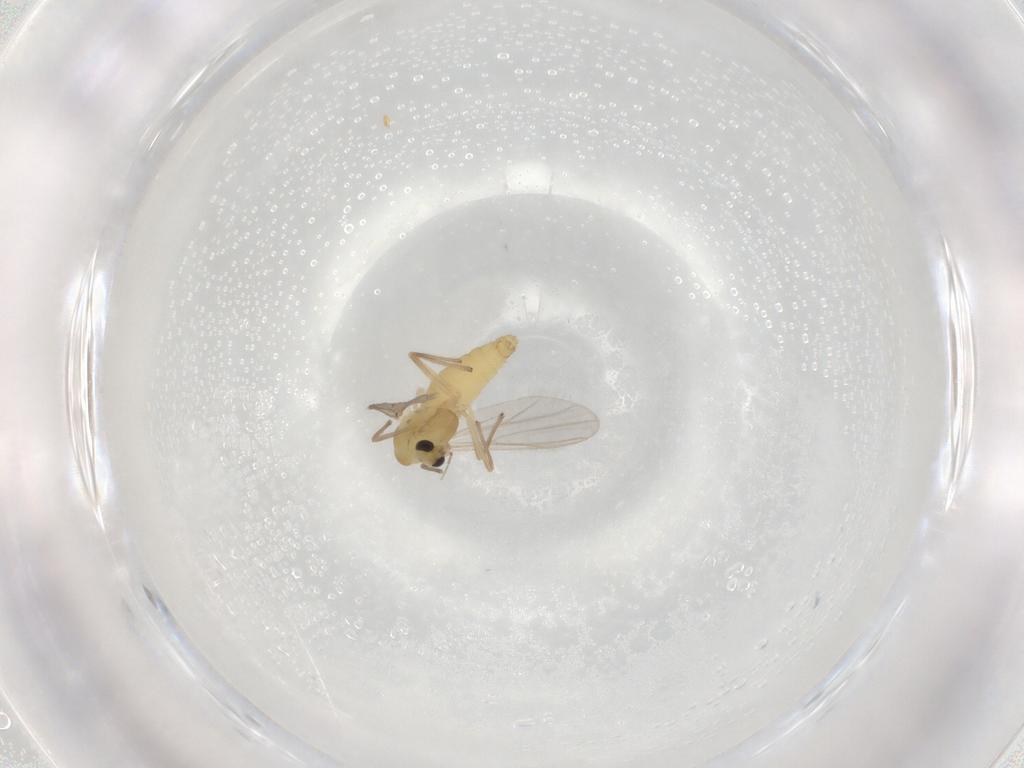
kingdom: Animalia
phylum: Arthropoda
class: Insecta
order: Diptera
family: Chironomidae
